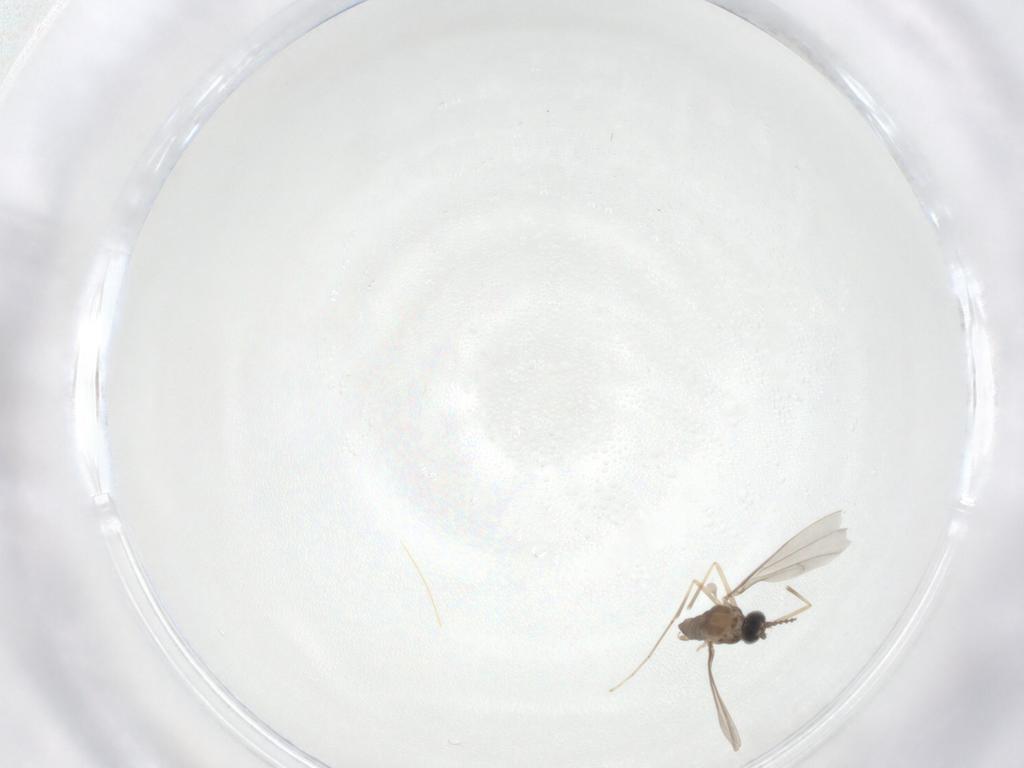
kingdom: Animalia
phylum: Arthropoda
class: Insecta
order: Diptera
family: Cecidomyiidae
